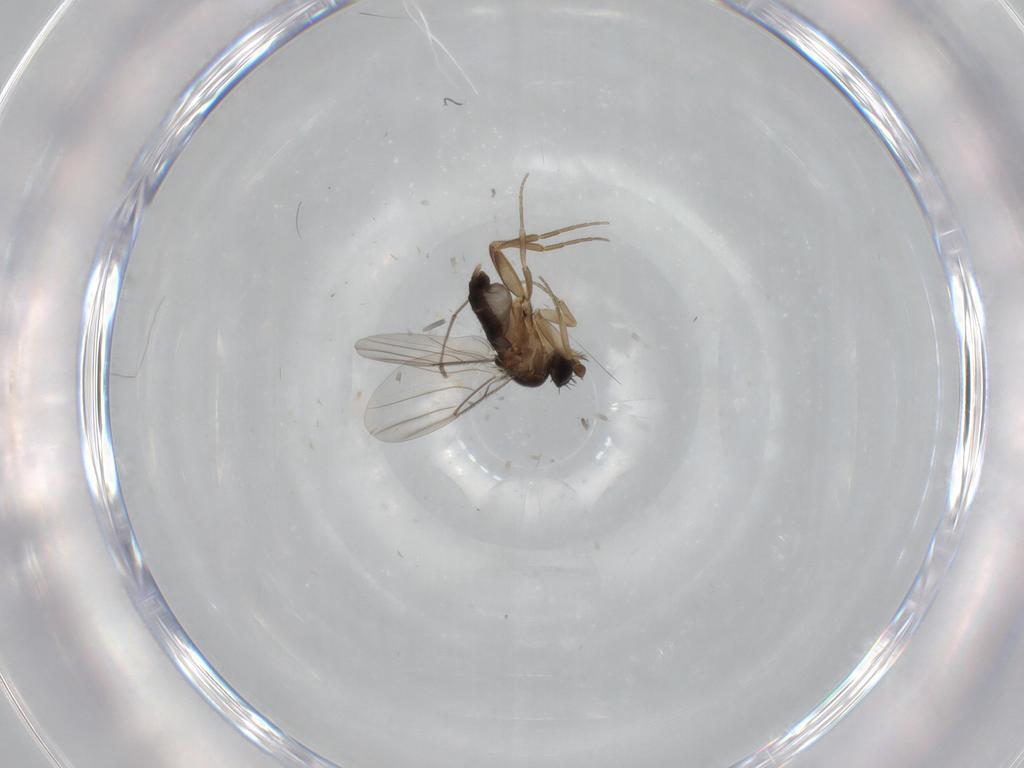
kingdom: Animalia
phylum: Arthropoda
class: Insecta
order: Diptera
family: Phoridae
